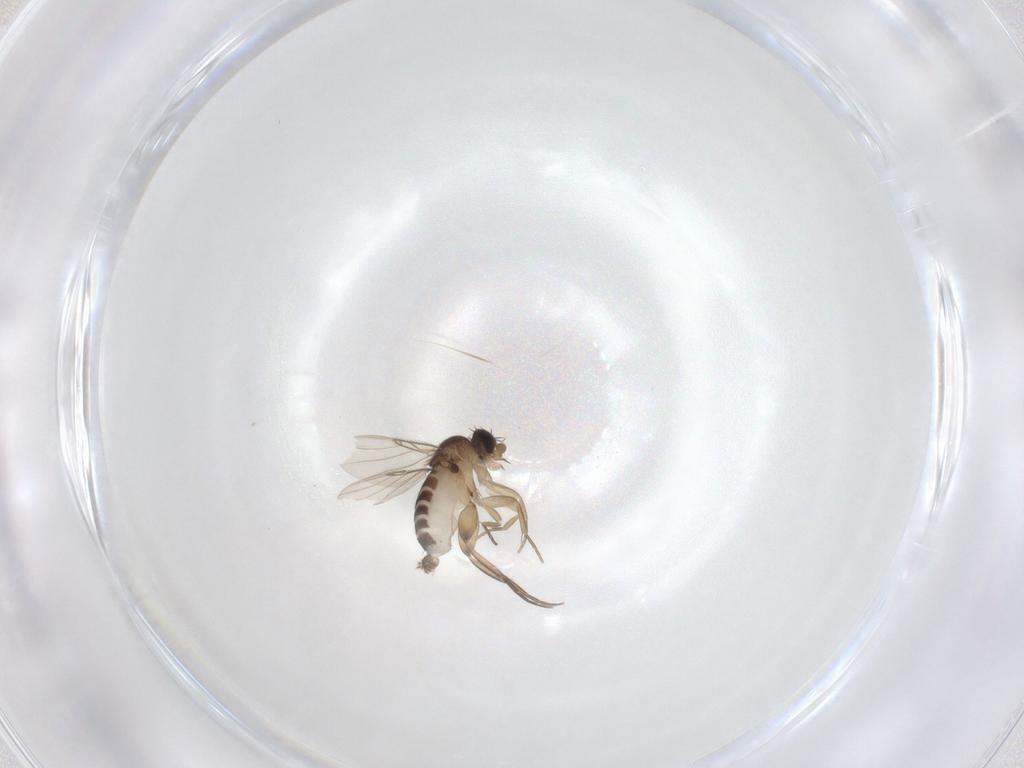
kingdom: Animalia
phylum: Arthropoda
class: Insecta
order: Diptera
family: Phoridae
